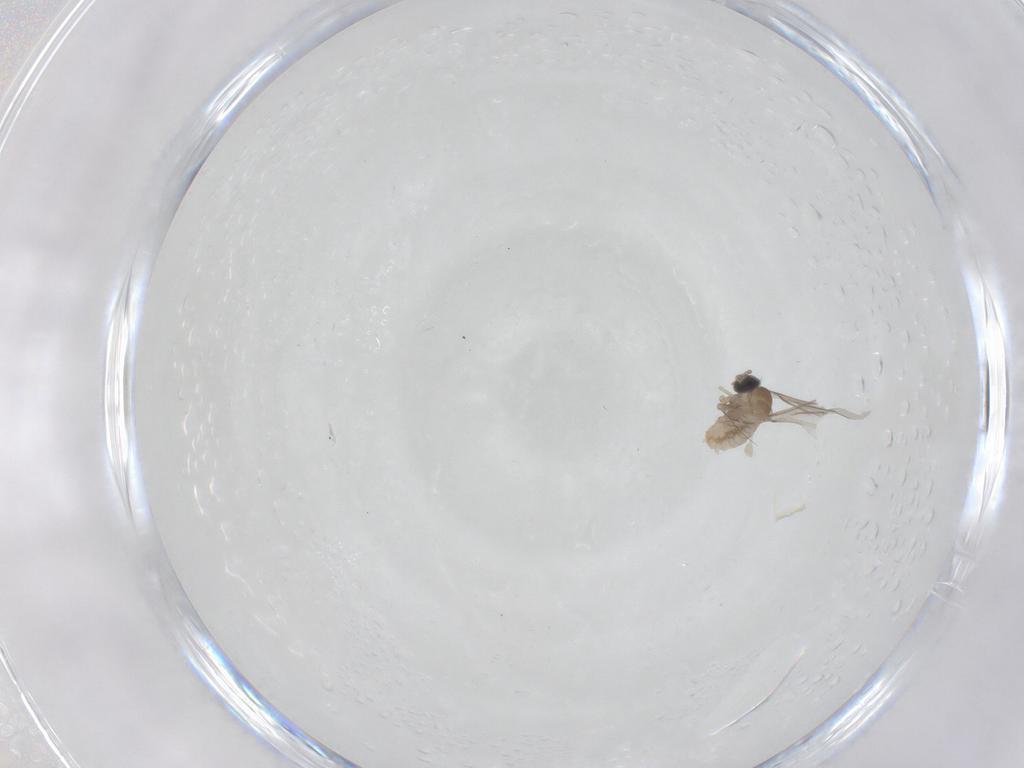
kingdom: Animalia
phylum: Arthropoda
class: Insecta
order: Diptera
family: Cecidomyiidae
